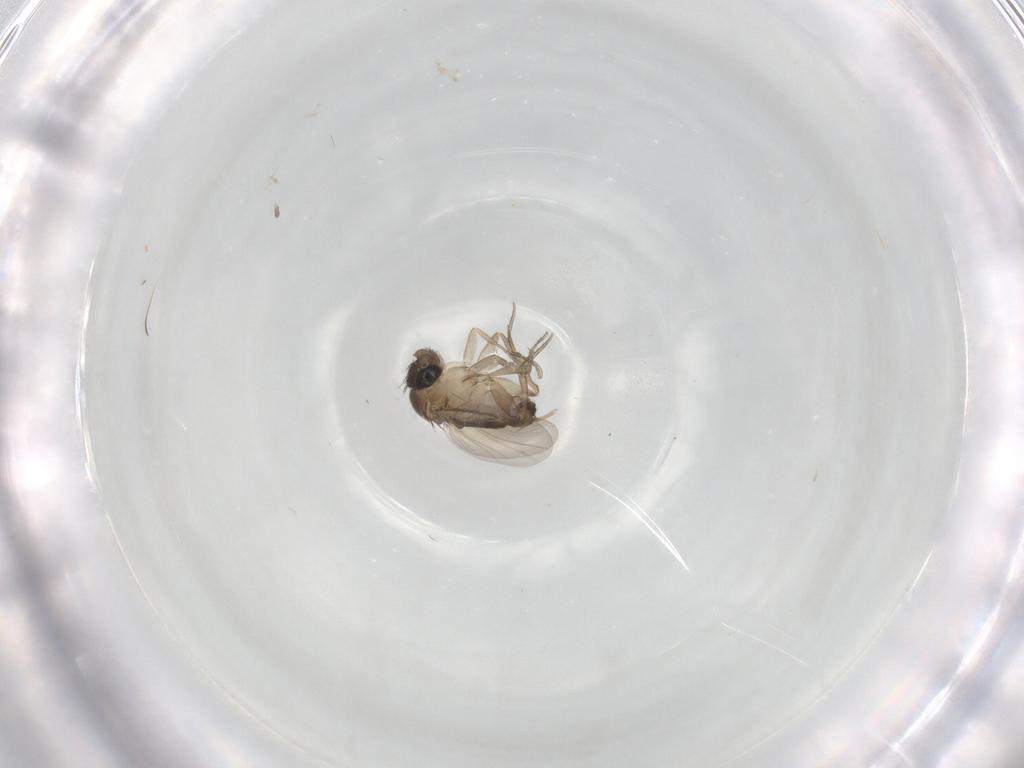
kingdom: Animalia
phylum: Arthropoda
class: Insecta
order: Diptera
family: Phoridae
